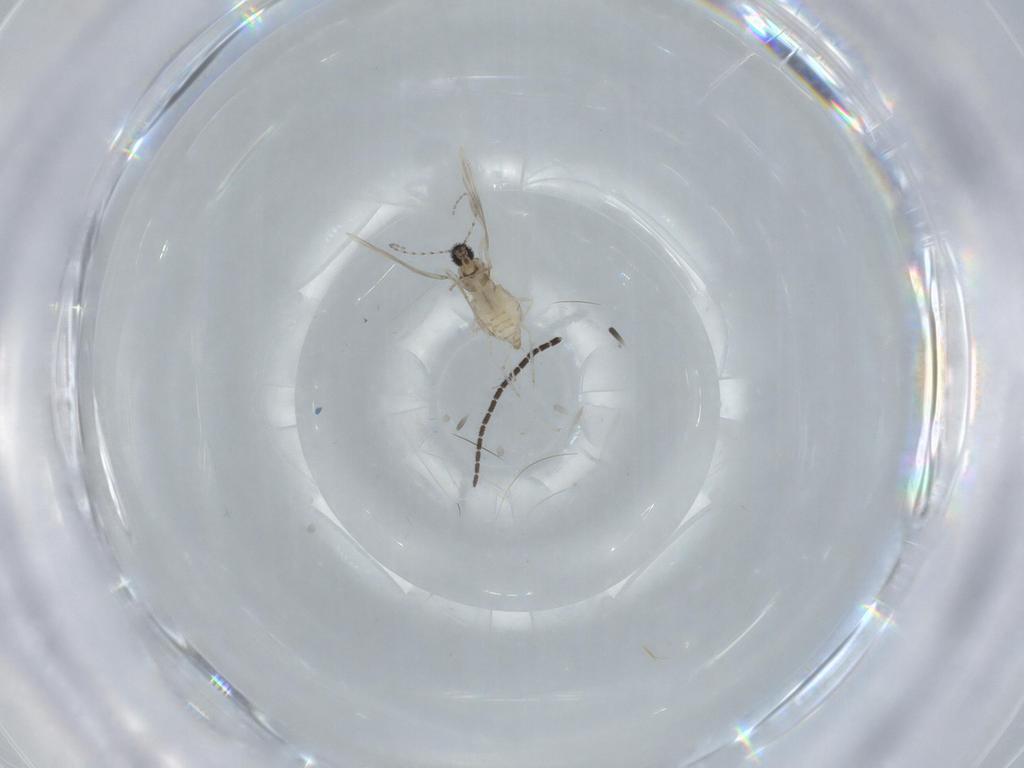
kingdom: Animalia
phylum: Arthropoda
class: Insecta
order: Diptera
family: Cecidomyiidae
